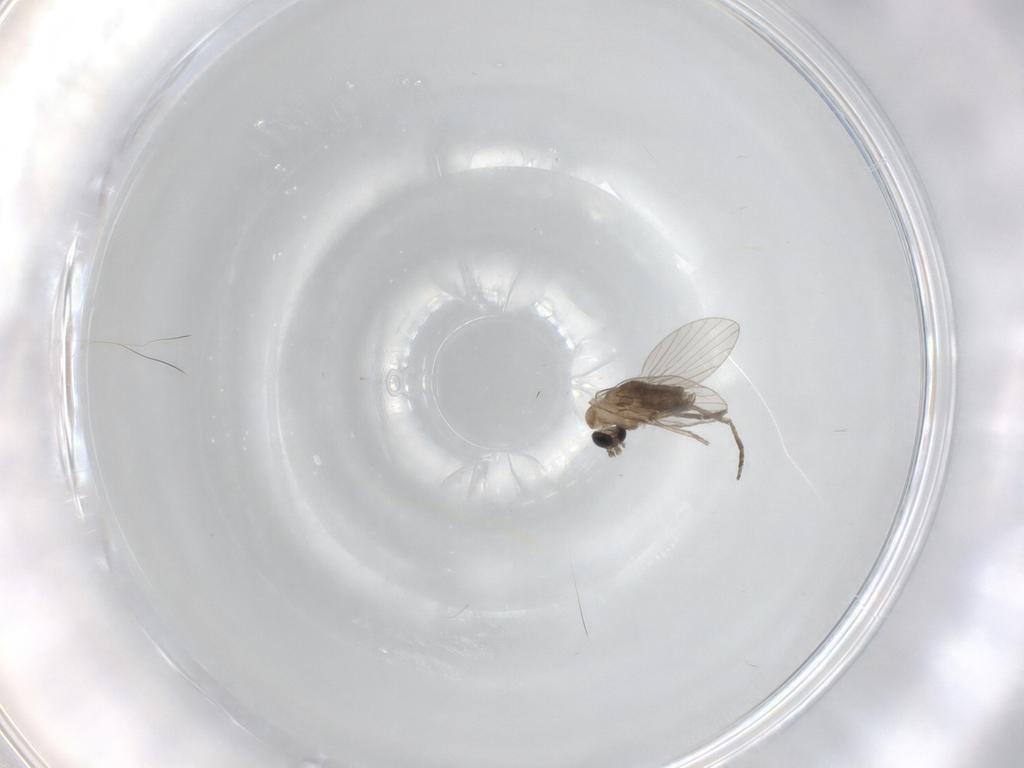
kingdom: Animalia
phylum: Arthropoda
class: Insecta
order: Diptera
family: Psychodidae
